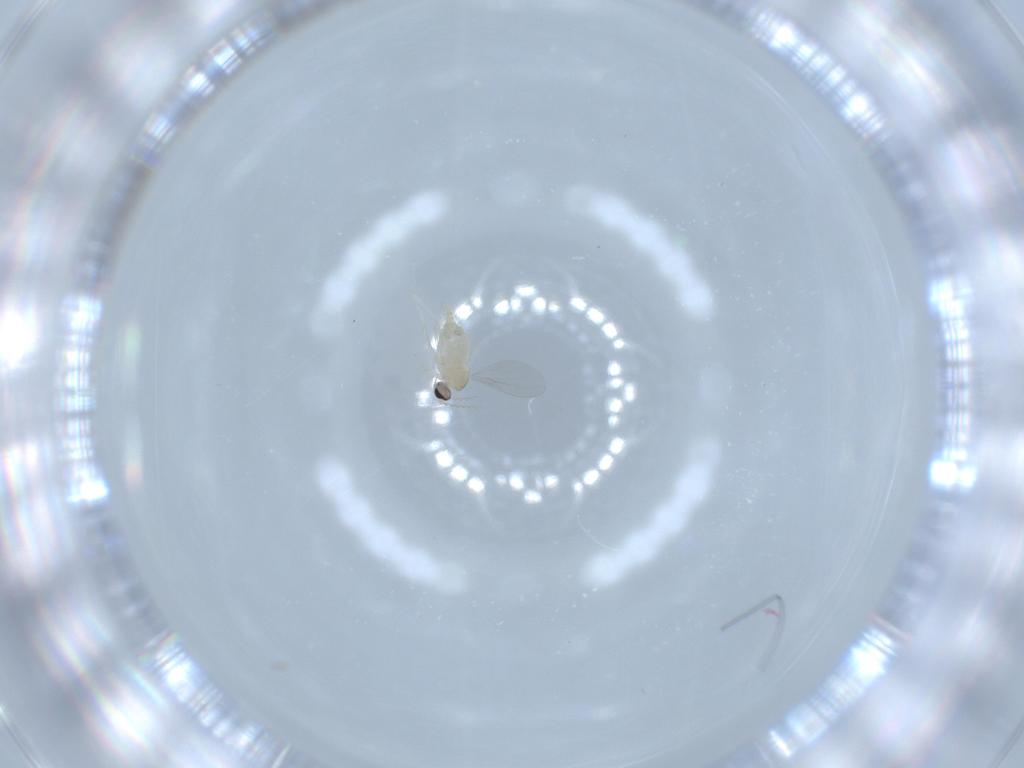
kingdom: Animalia
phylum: Arthropoda
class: Insecta
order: Diptera
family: Cecidomyiidae
